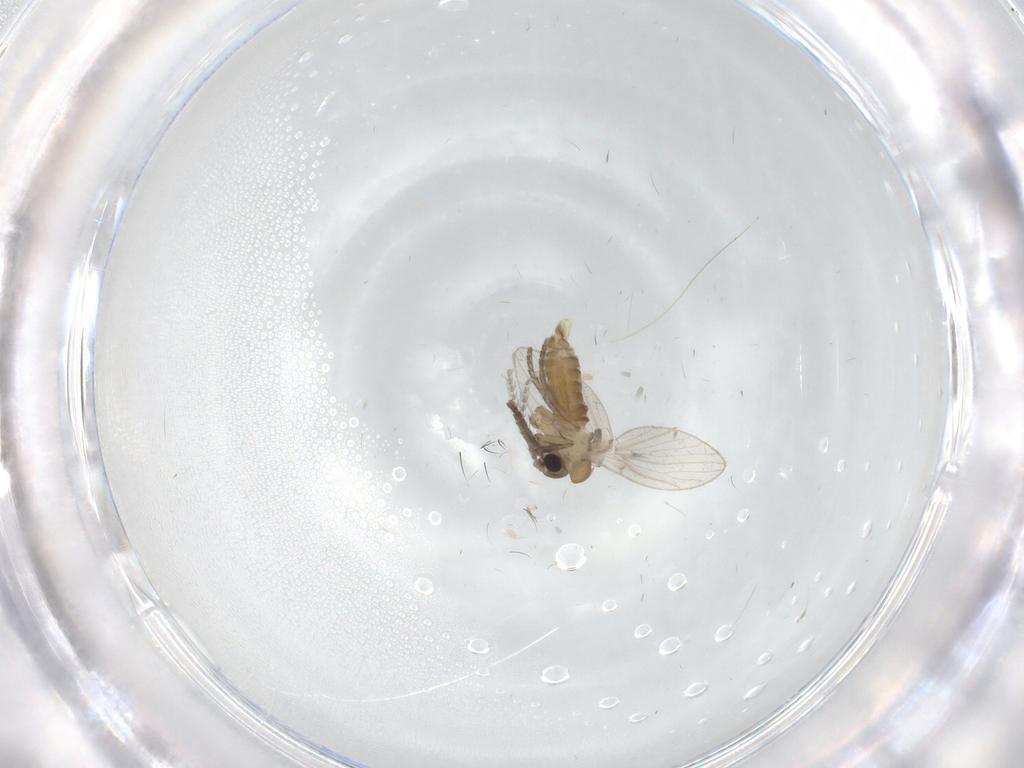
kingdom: Animalia
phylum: Arthropoda
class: Insecta
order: Diptera
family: Psychodidae
